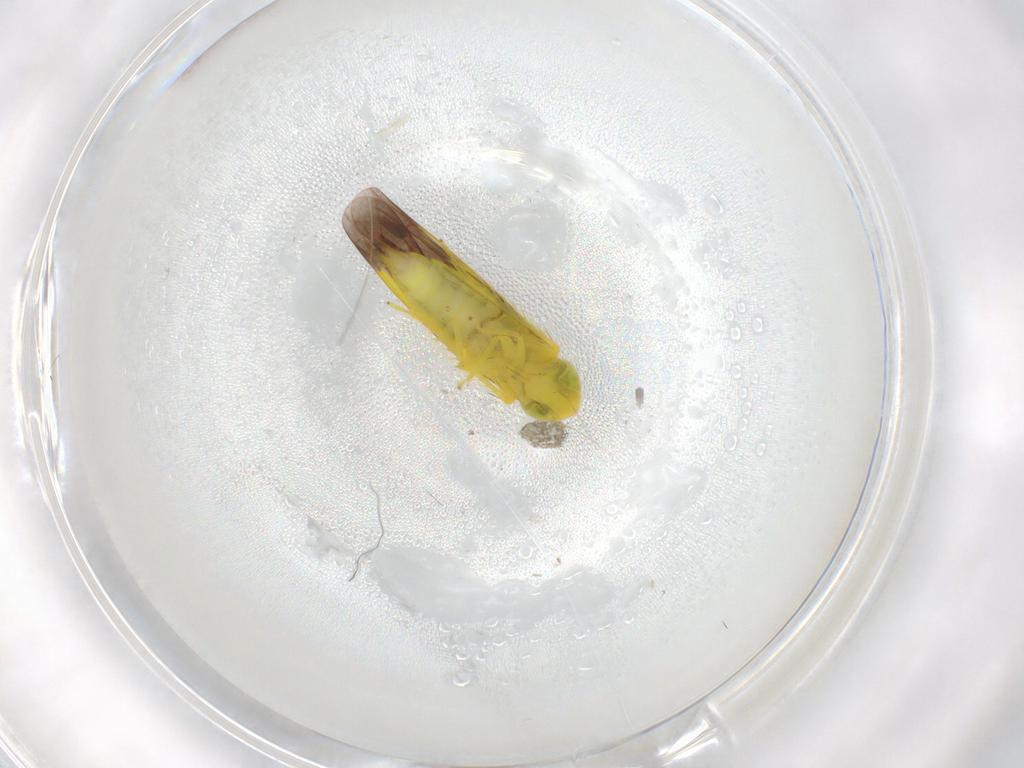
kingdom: Animalia
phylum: Arthropoda
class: Insecta
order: Hemiptera
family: Cicadellidae
